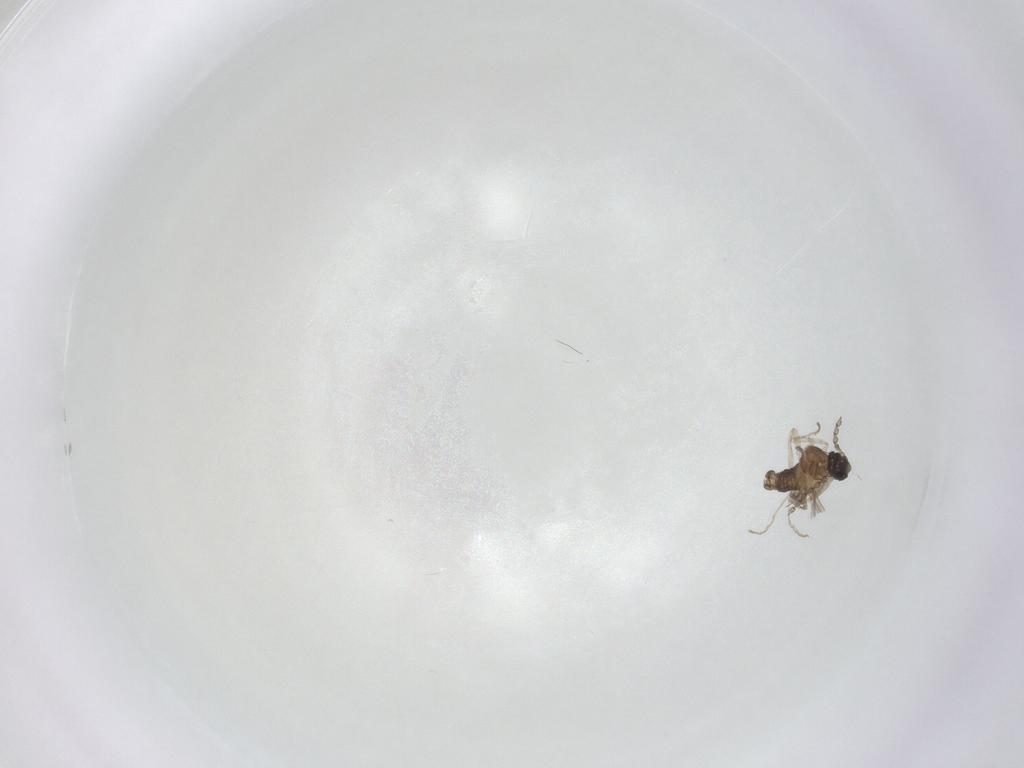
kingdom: Animalia
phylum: Arthropoda
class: Insecta
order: Diptera
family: Cecidomyiidae
